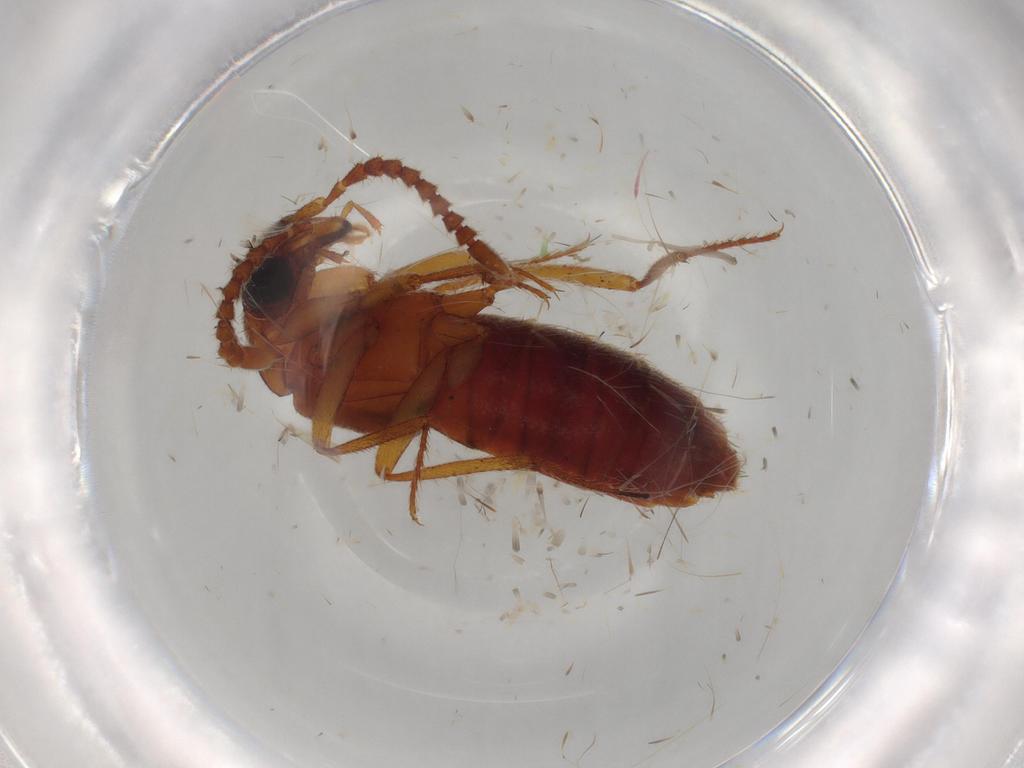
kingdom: Animalia
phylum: Arthropoda
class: Insecta
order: Coleoptera
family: Staphylinidae
